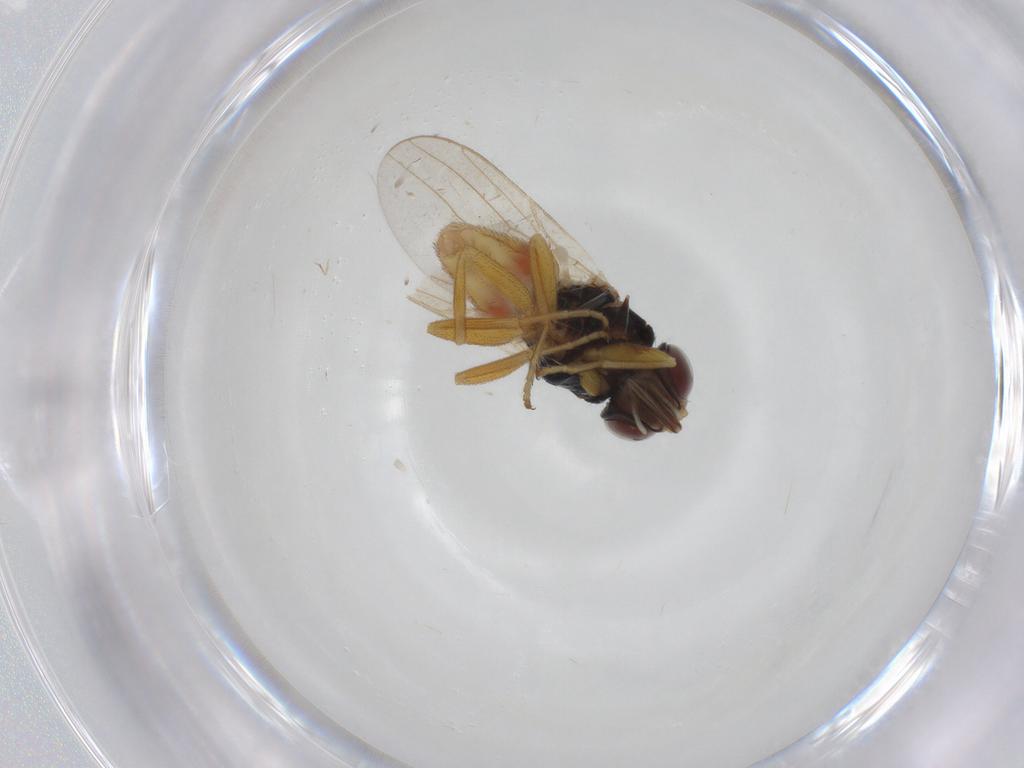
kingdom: Animalia
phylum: Arthropoda
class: Insecta
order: Diptera
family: Chloropidae
